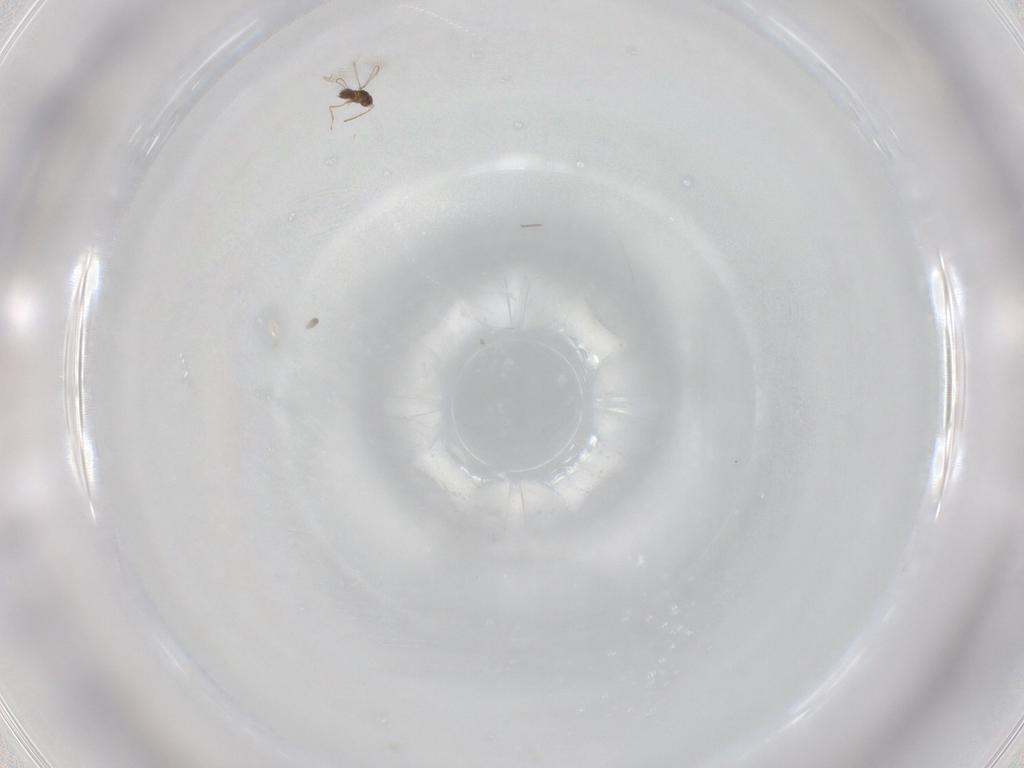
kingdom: Animalia
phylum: Arthropoda
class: Insecta
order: Hymenoptera
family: Mymaridae
